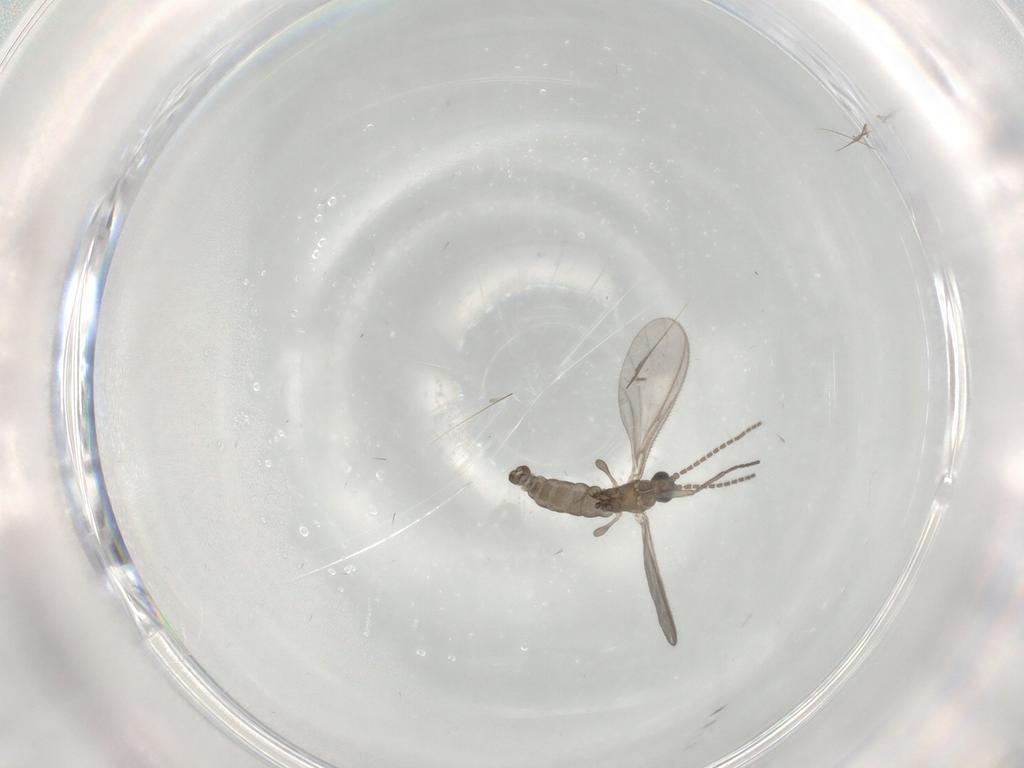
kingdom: Animalia
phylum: Arthropoda
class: Insecta
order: Diptera
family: Sciaridae
